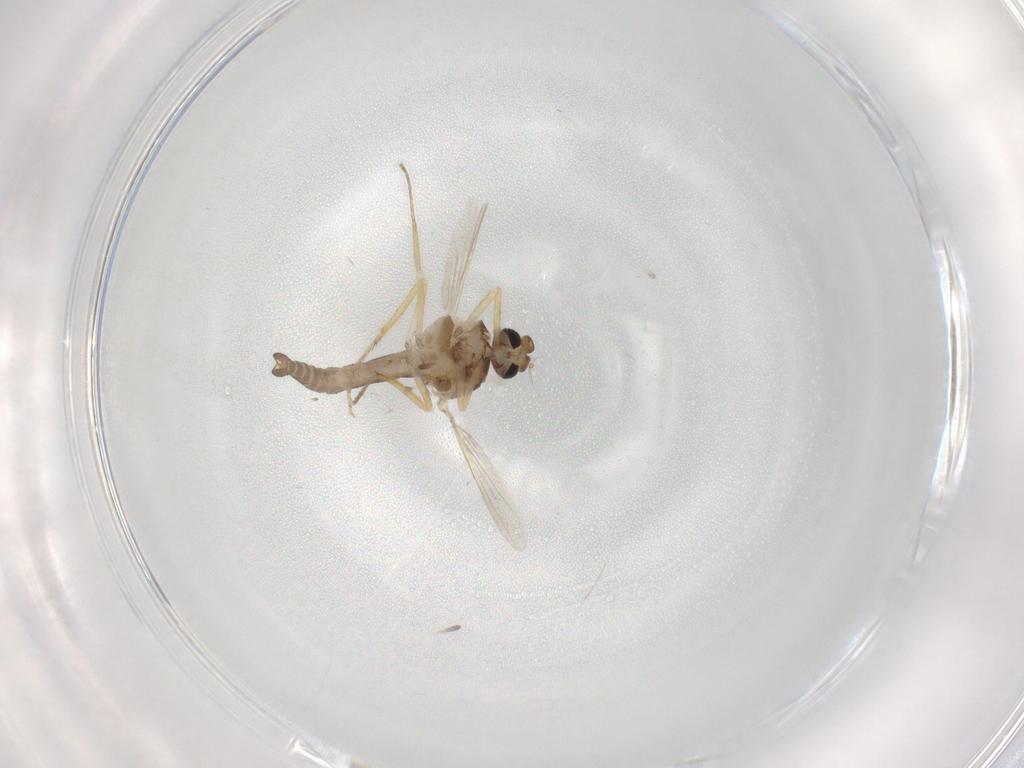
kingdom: Animalia
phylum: Arthropoda
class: Insecta
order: Diptera
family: Ceratopogonidae
